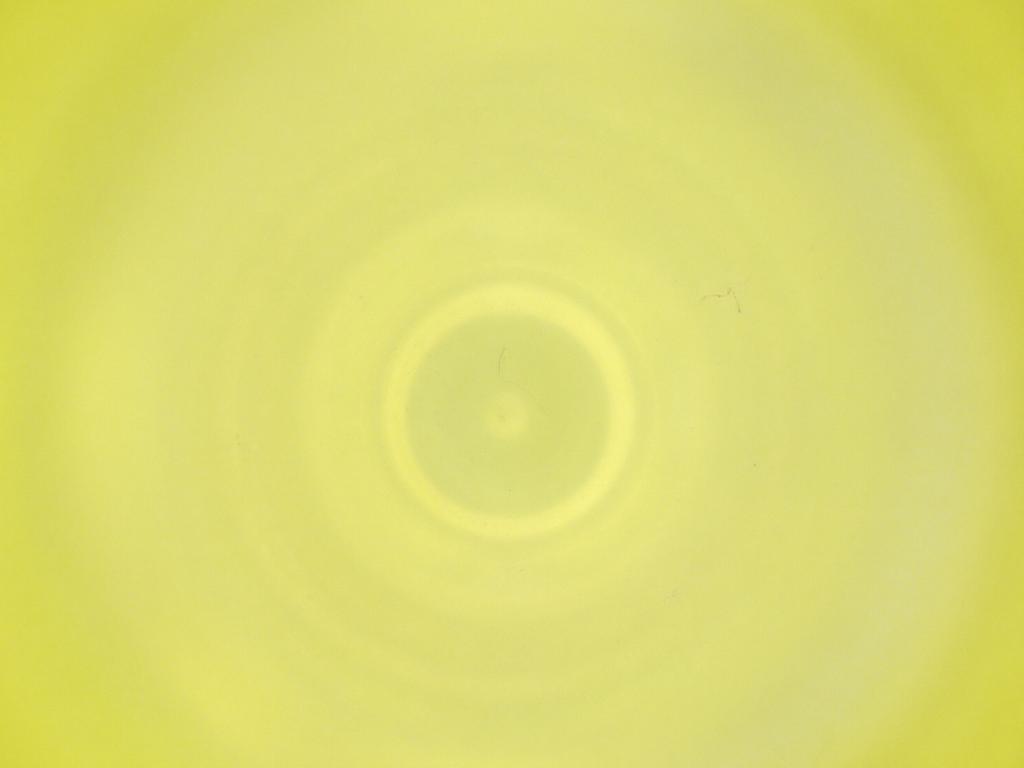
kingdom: Animalia
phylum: Arthropoda
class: Insecta
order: Diptera
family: Cecidomyiidae
